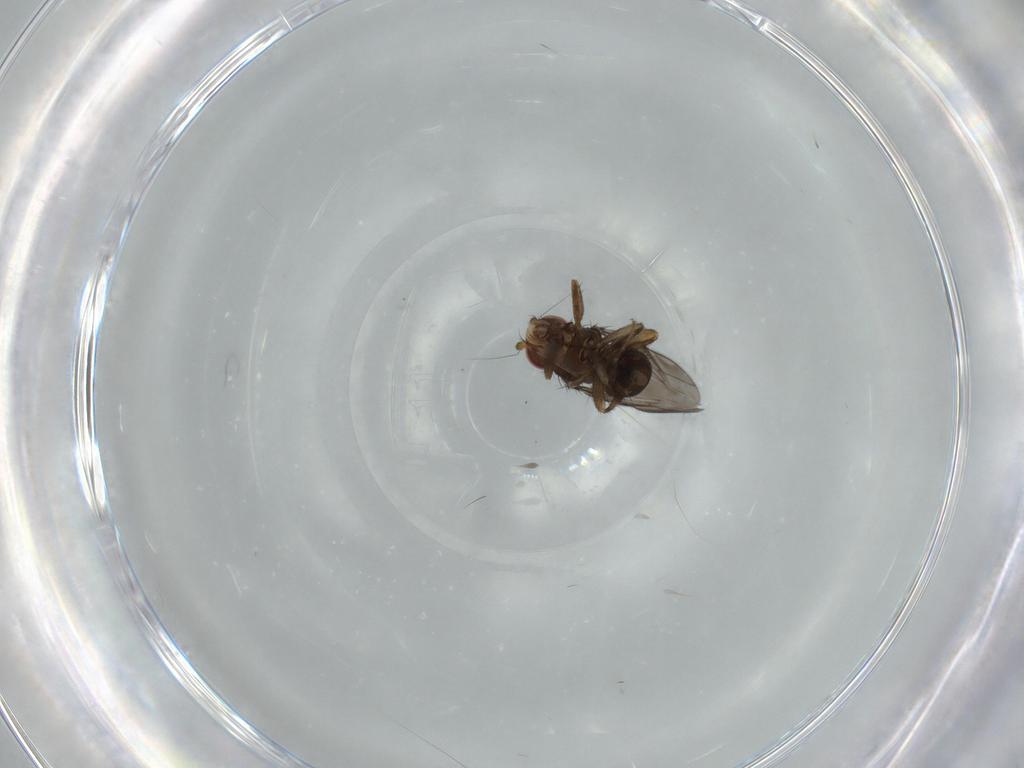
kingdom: Animalia
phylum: Arthropoda
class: Insecta
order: Diptera
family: Sphaeroceridae
